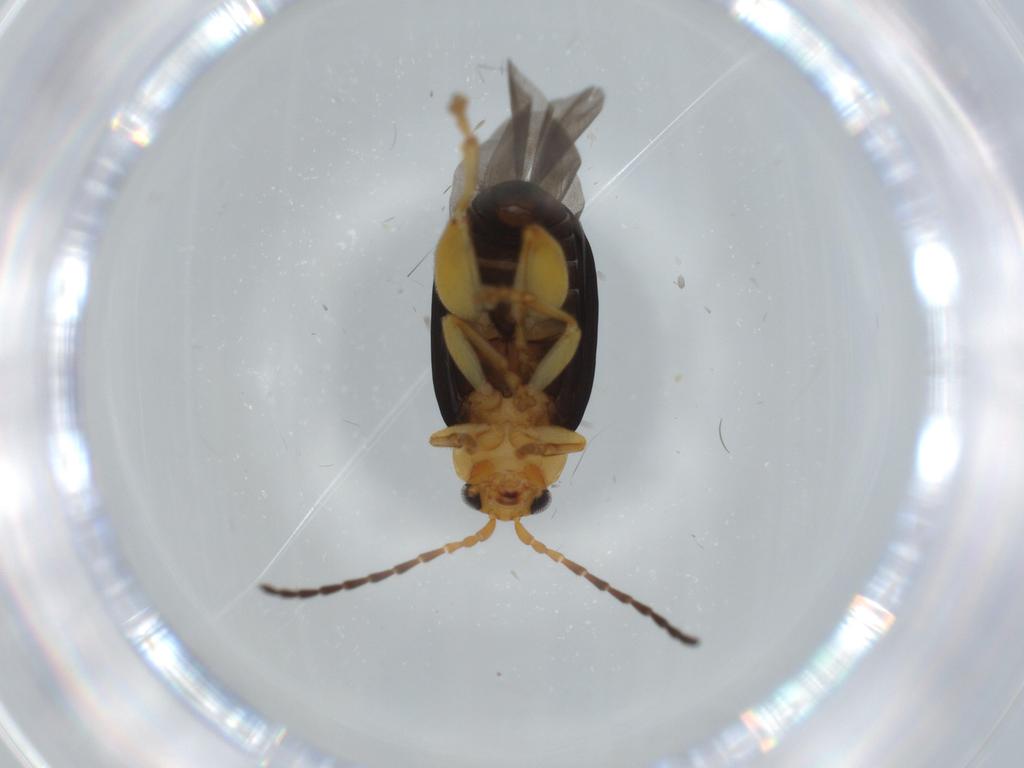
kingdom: Animalia
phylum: Arthropoda
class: Insecta
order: Coleoptera
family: Chrysomelidae
